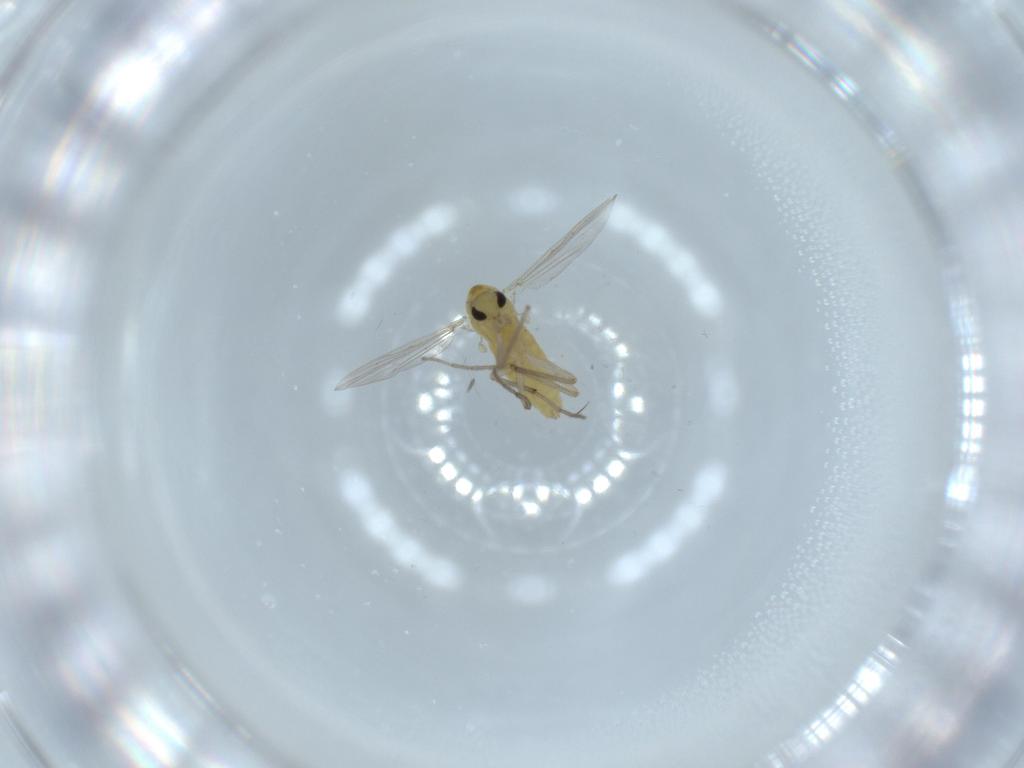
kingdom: Animalia
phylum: Arthropoda
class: Insecta
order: Diptera
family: Chironomidae
